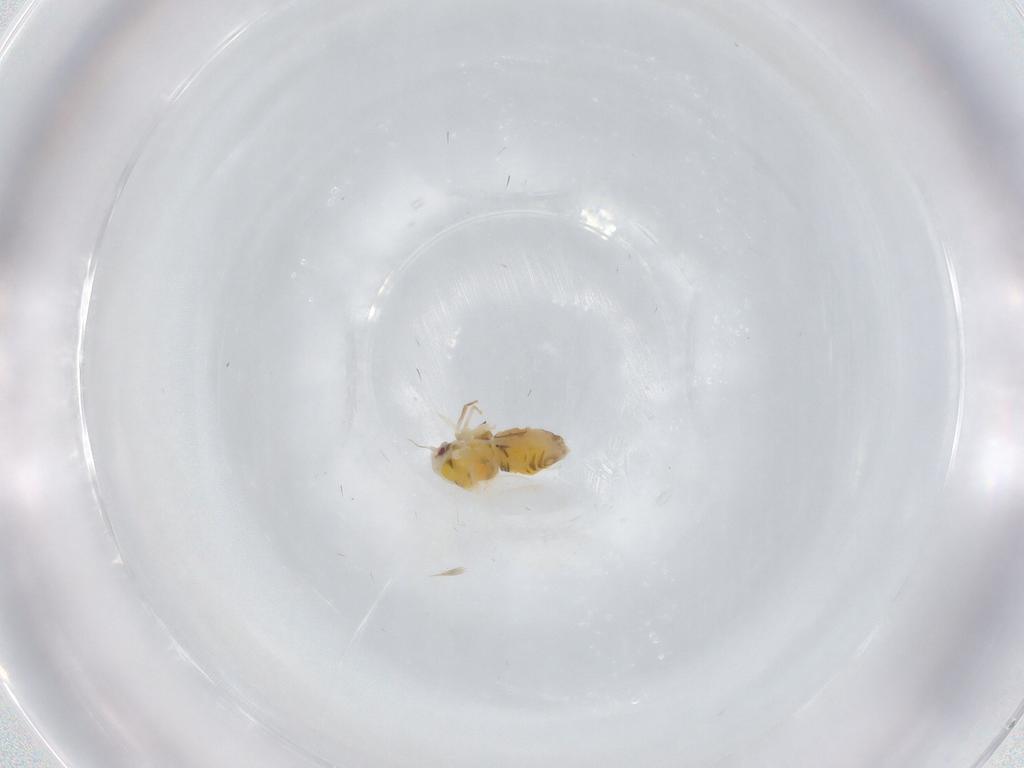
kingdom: Animalia
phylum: Arthropoda
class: Insecta
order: Hemiptera
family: Aleyrodidae
